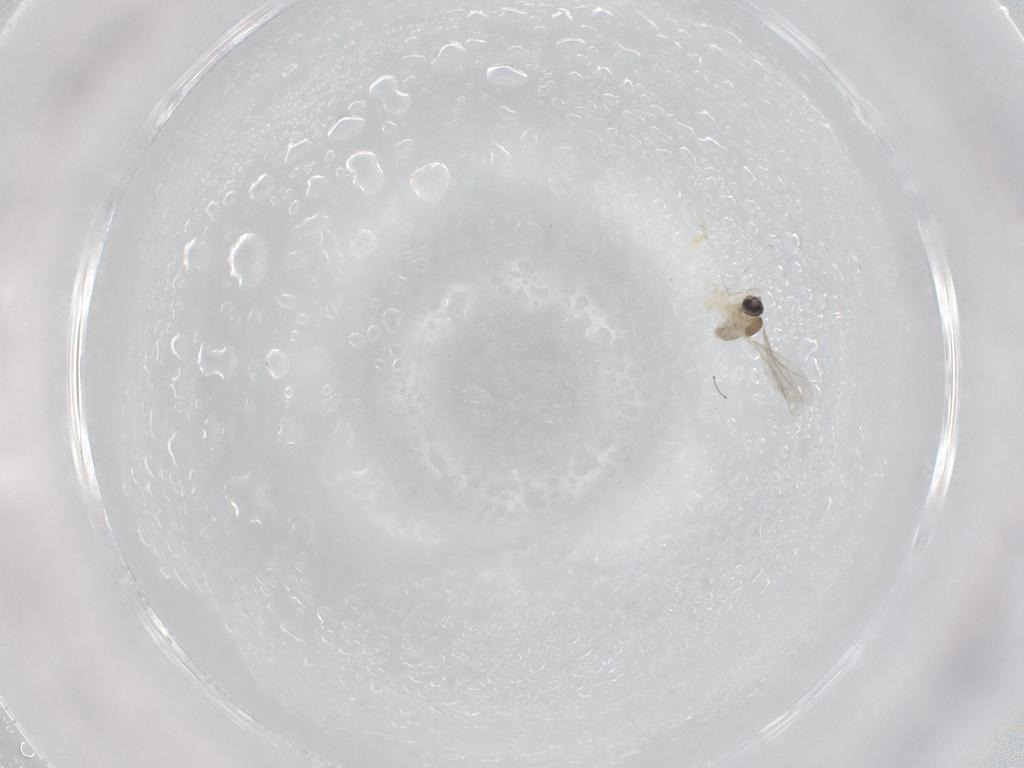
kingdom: Animalia
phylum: Arthropoda
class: Insecta
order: Diptera
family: Cecidomyiidae
